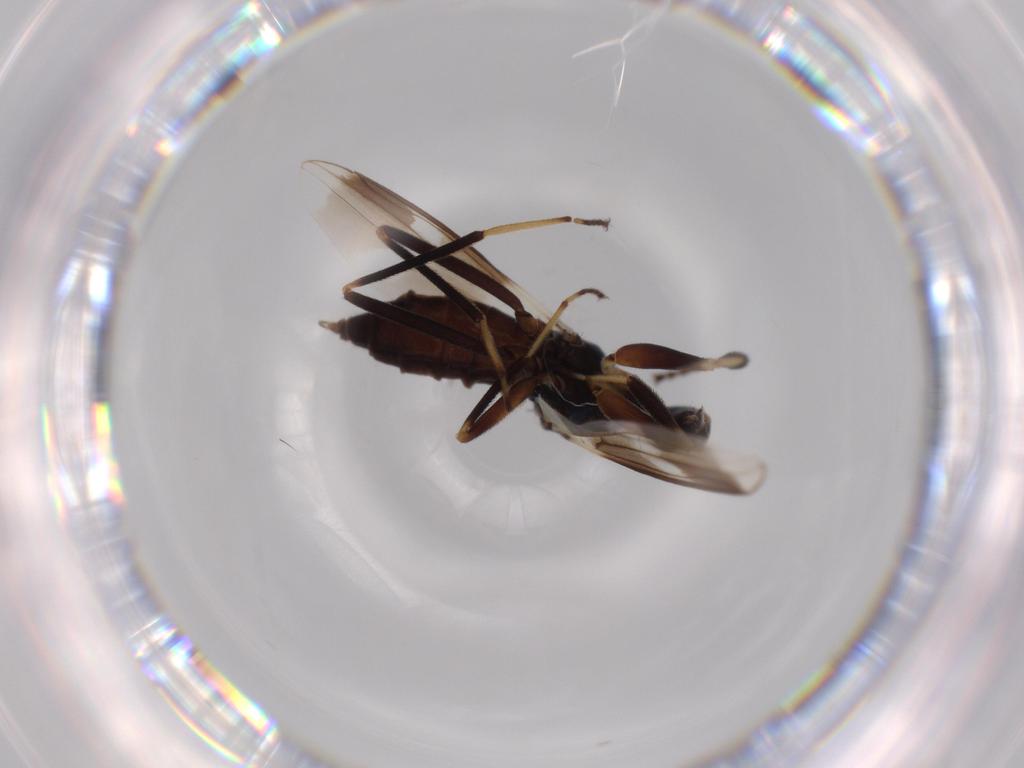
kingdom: Animalia
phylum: Arthropoda
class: Insecta
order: Diptera
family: Hybotidae
